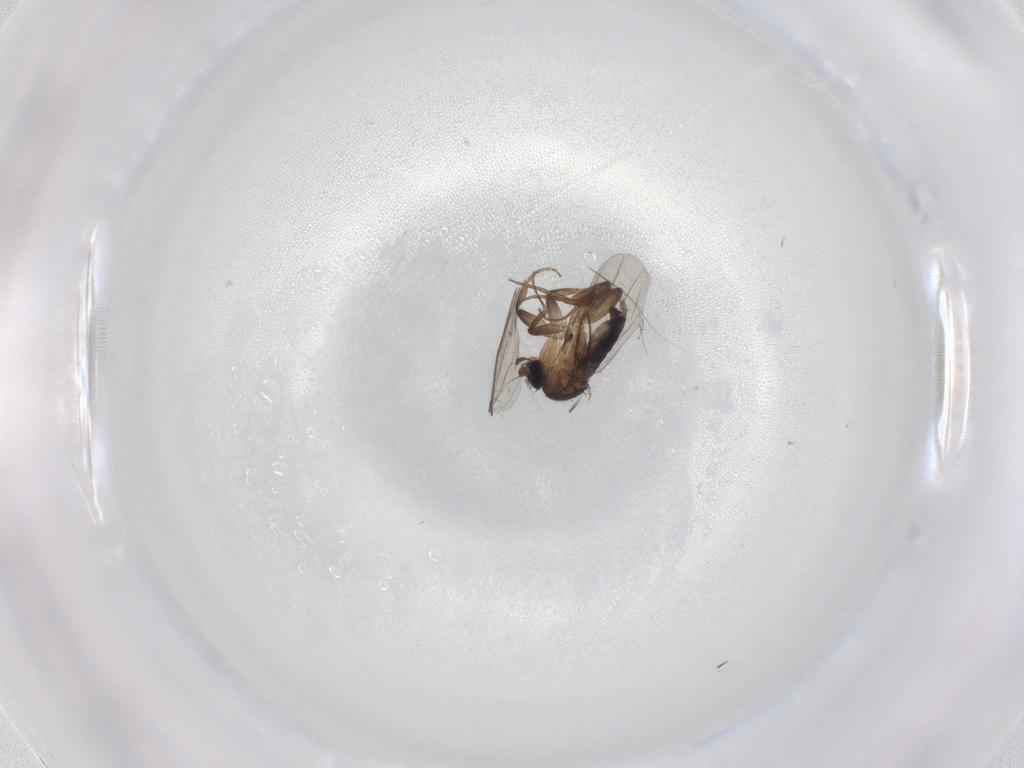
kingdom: Animalia
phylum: Arthropoda
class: Insecta
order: Diptera
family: Phoridae
